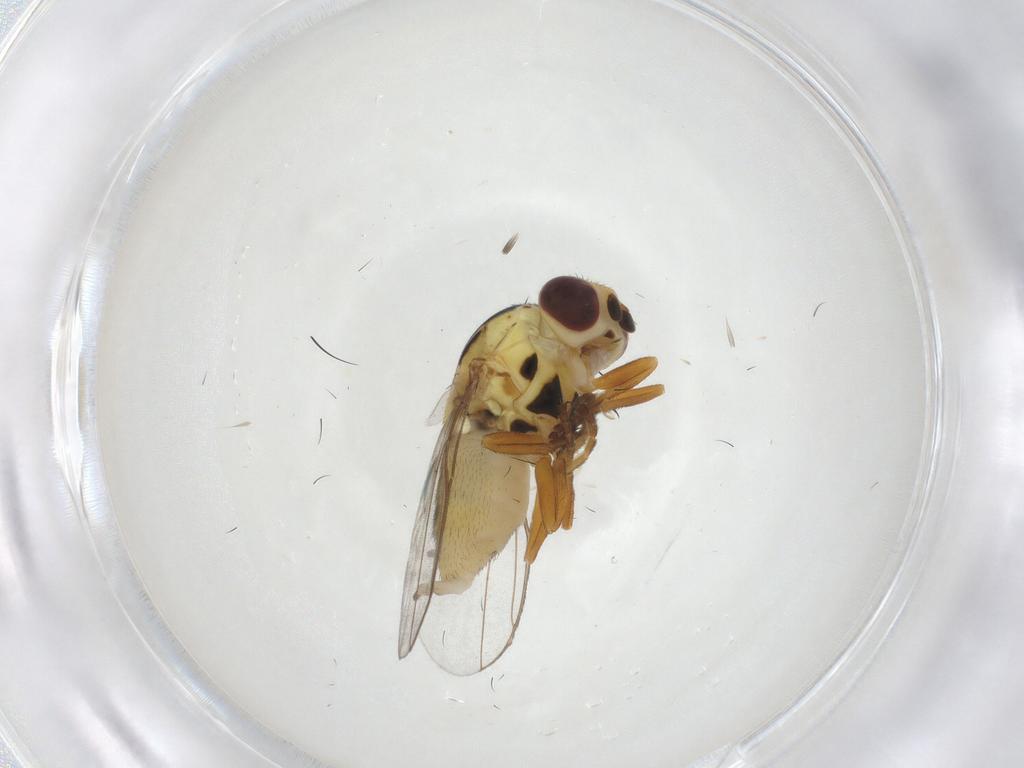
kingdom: Animalia
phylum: Arthropoda
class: Insecta
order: Diptera
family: Chloropidae
